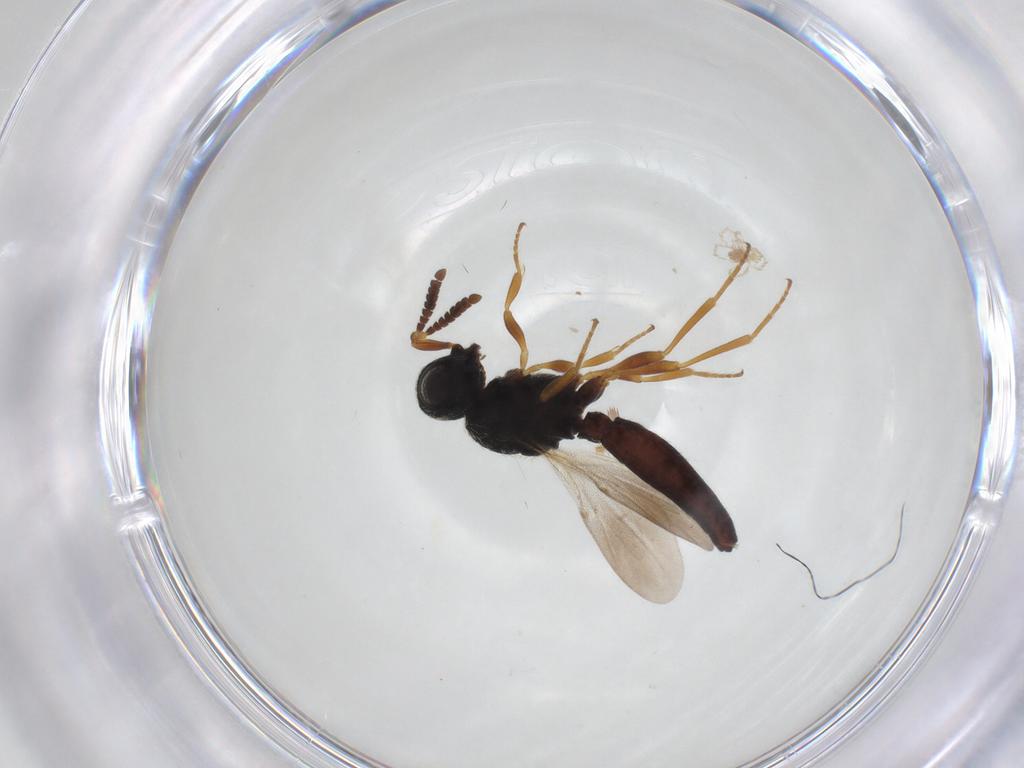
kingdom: Animalia
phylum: Arthropoda
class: Insecta
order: Hymenoptera
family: Scelionidae
